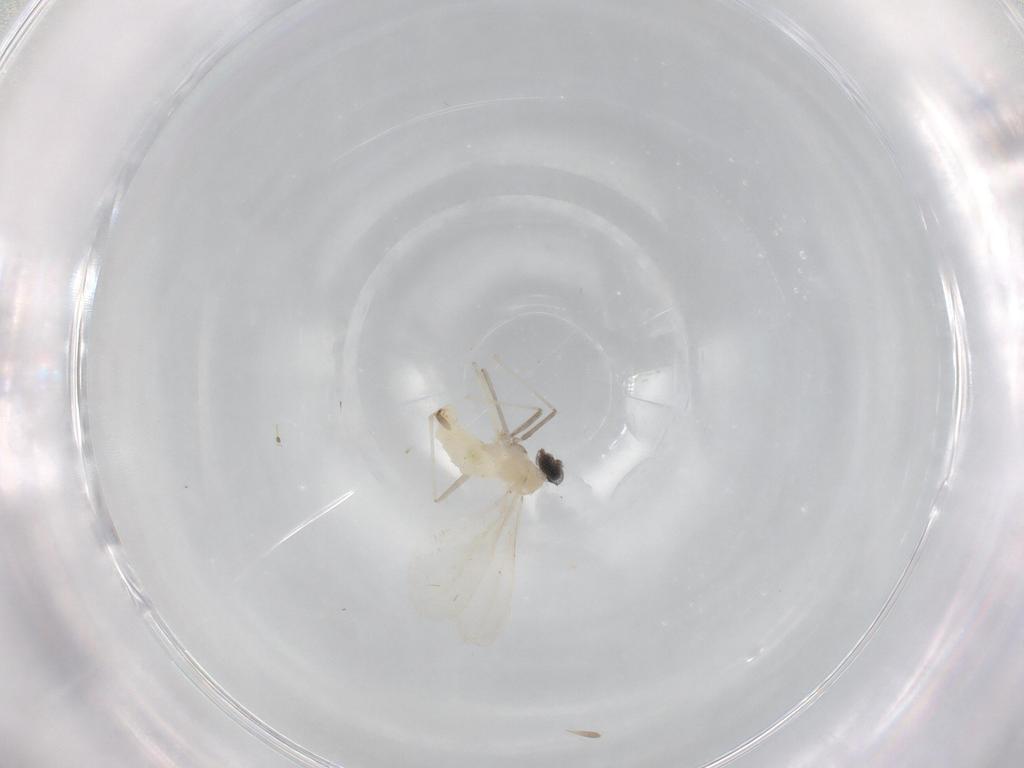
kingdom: Animalia
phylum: Arthropoda
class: Insecta
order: Diptera
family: Cecidomyiidae
